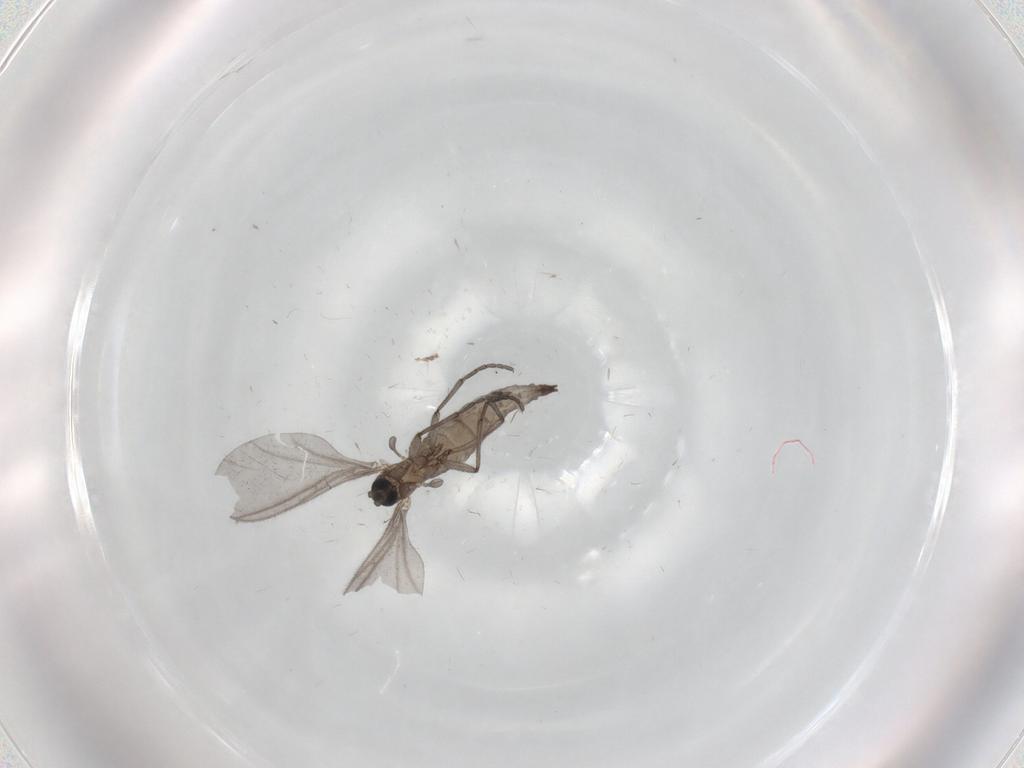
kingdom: Animalia
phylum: Arthropoda
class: Insecta
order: Diptera
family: Sciaridae
